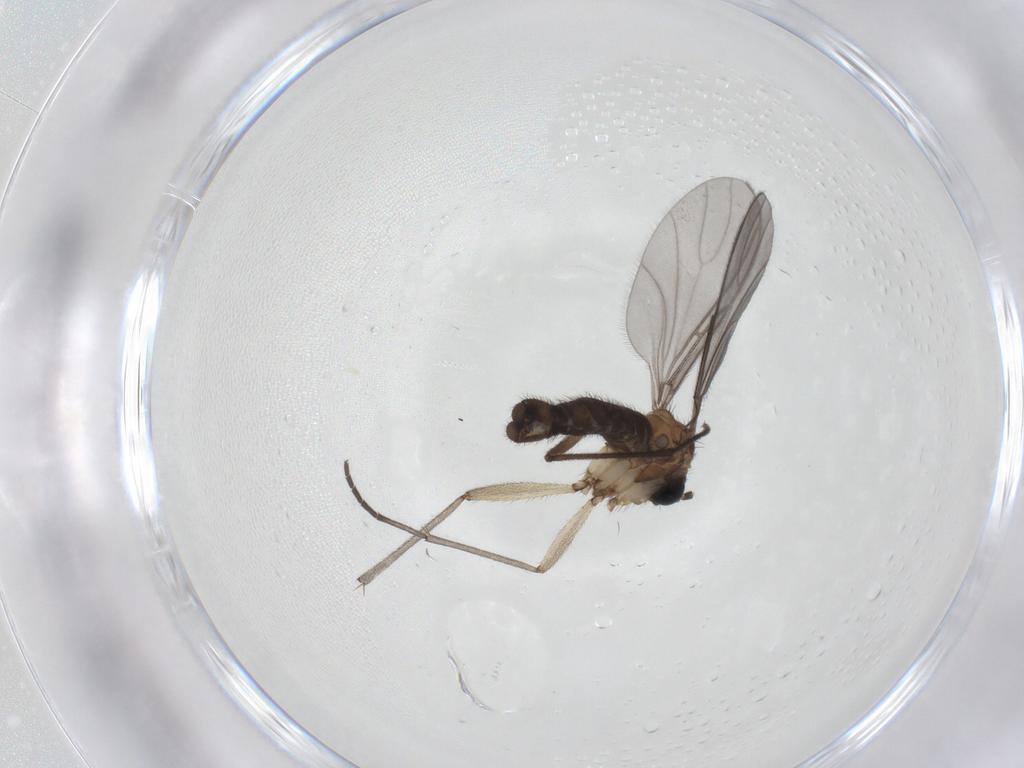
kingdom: Animalia
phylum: Arthropoda
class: Insecta
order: Diptera
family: Sciaridae
